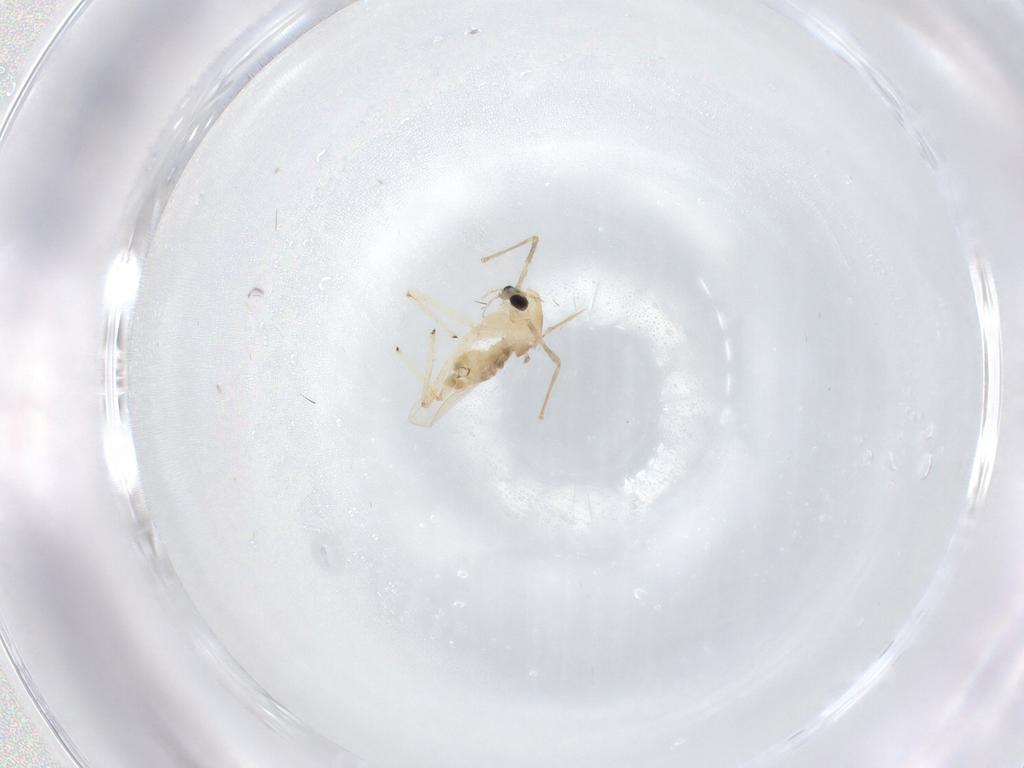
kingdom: Animalia
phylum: Arthropoda
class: Insecta
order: Diptera
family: Chironomidae
